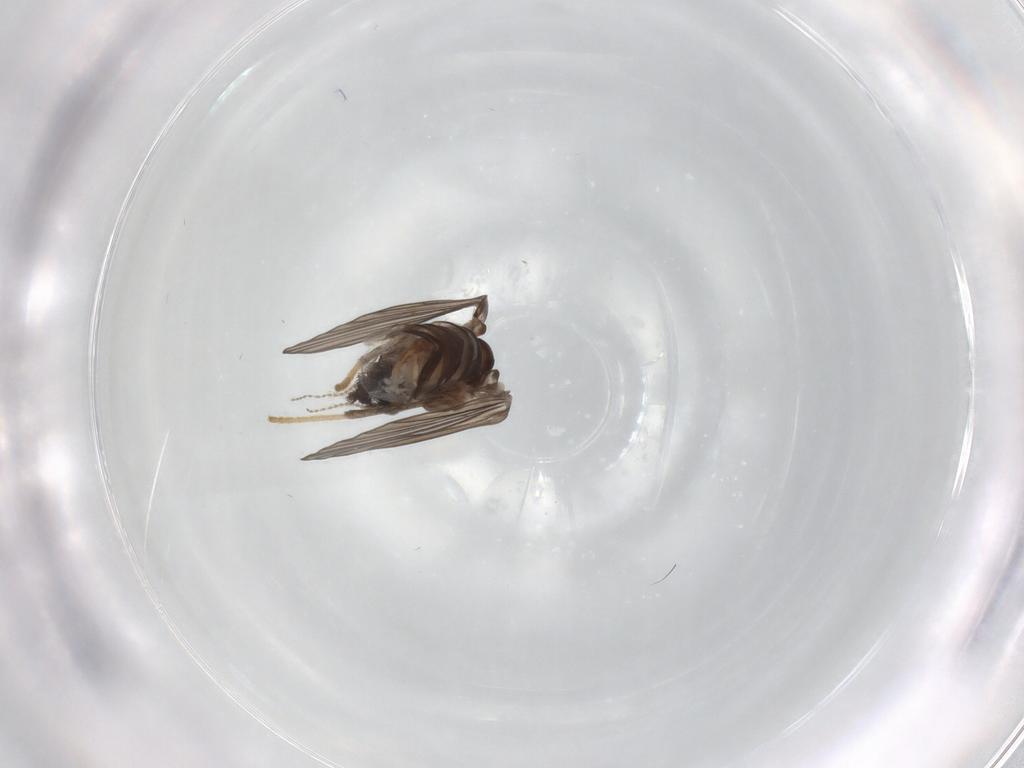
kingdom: Animalia
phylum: Arthropoda
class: Insecta
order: Diptera
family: Psychodidae
